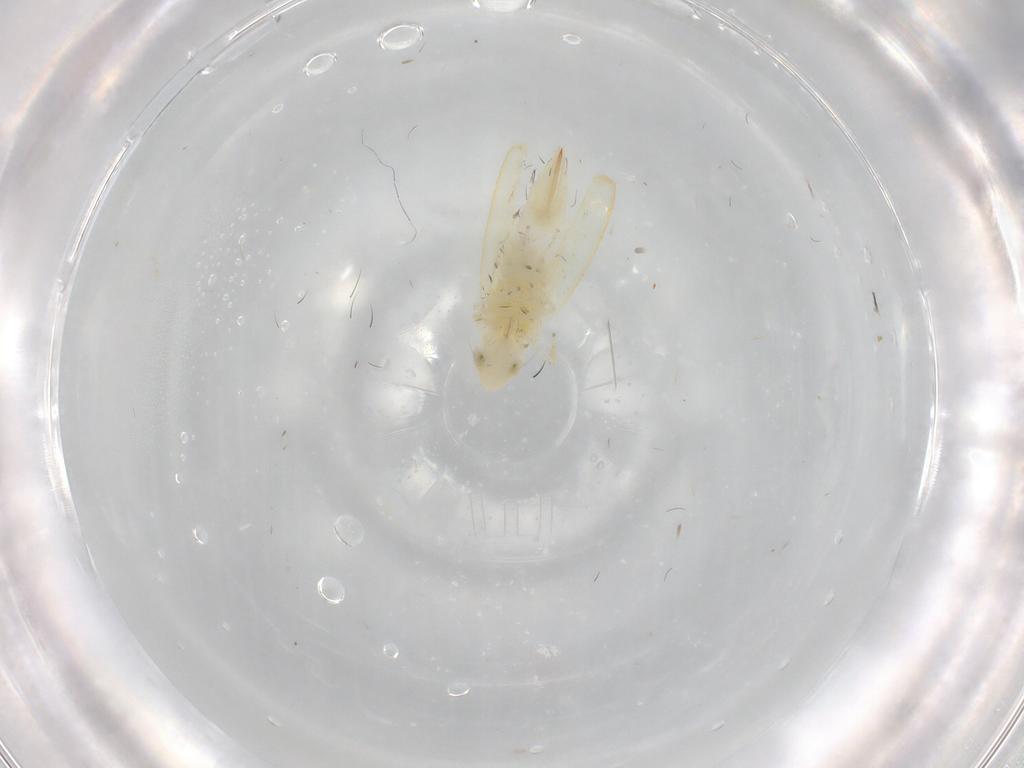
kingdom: Animalia
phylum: Arthropoda
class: Insecta
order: Hemiptera
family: Cicadellidae
